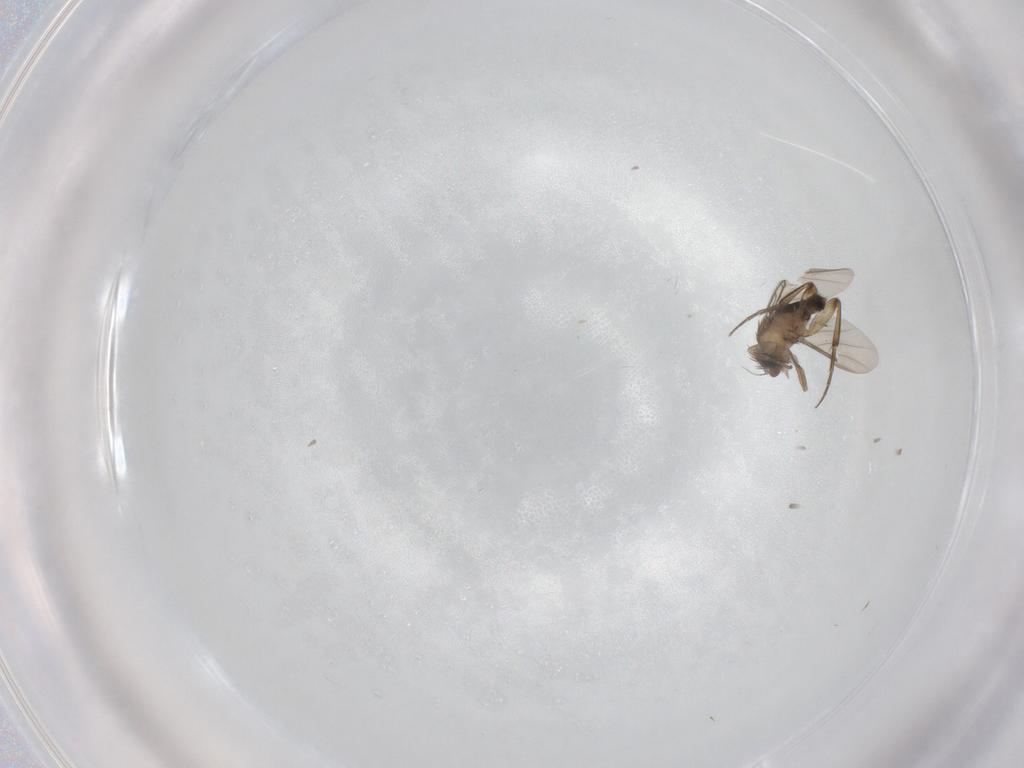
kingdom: Animalia
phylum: Arthropoda
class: Insecta
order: Diptera
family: Phoridae
